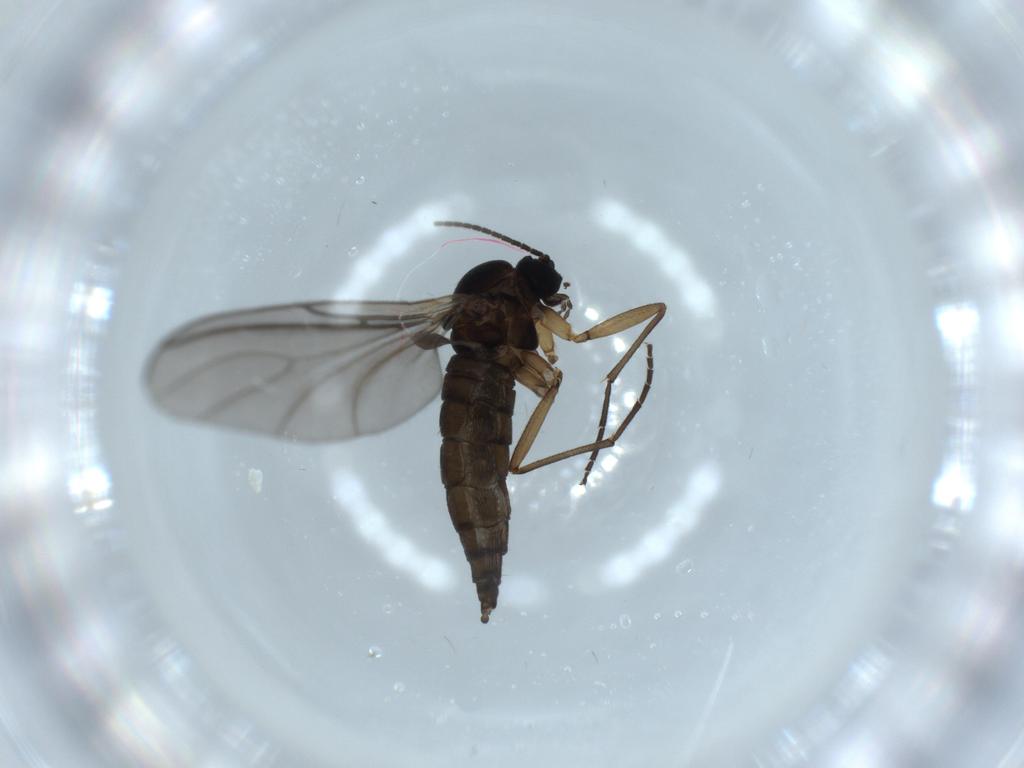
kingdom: Animalia
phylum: Arthropoda
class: Insecta
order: Diptera
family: Sciaridae
